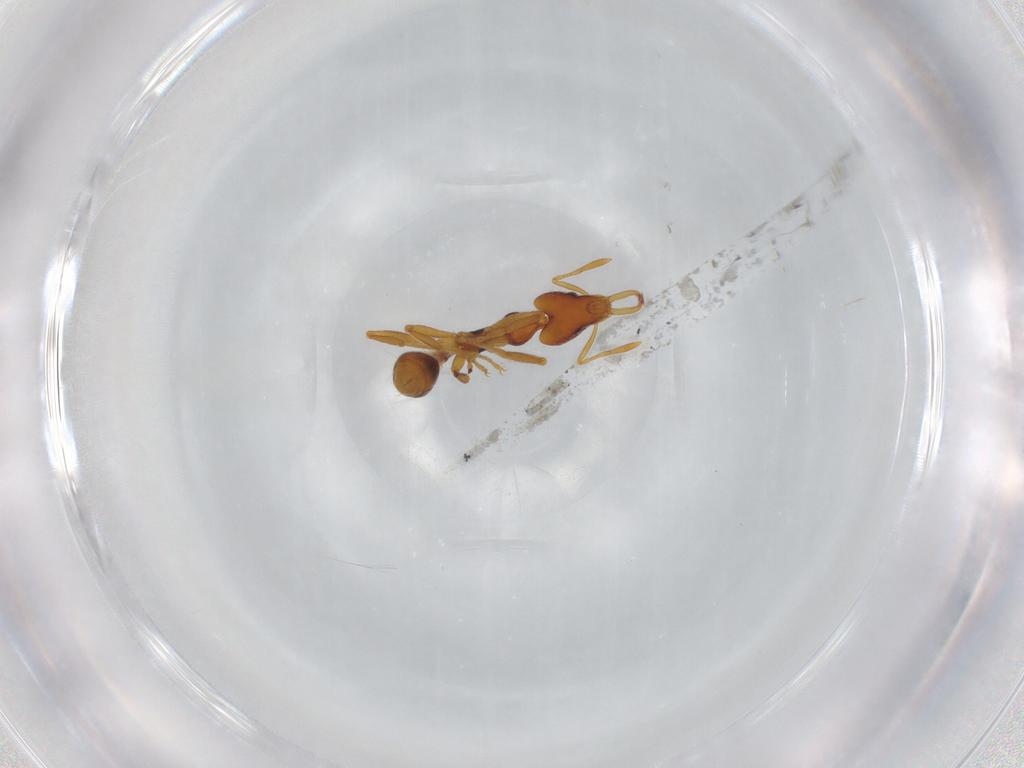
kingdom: Animalia
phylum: Arthropoda
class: Insecta
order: Hymenoptera
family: Formicidae
